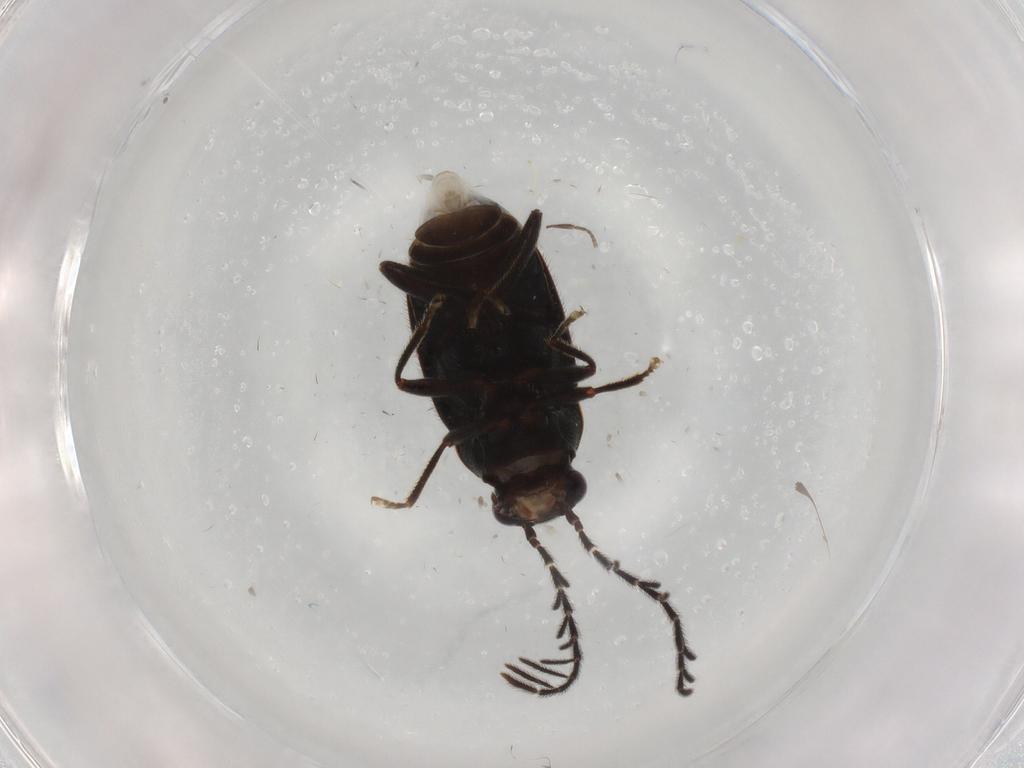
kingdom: Animalia
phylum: Arthropoda
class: Insecta
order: Coleoptera
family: Ptilodactylidae
